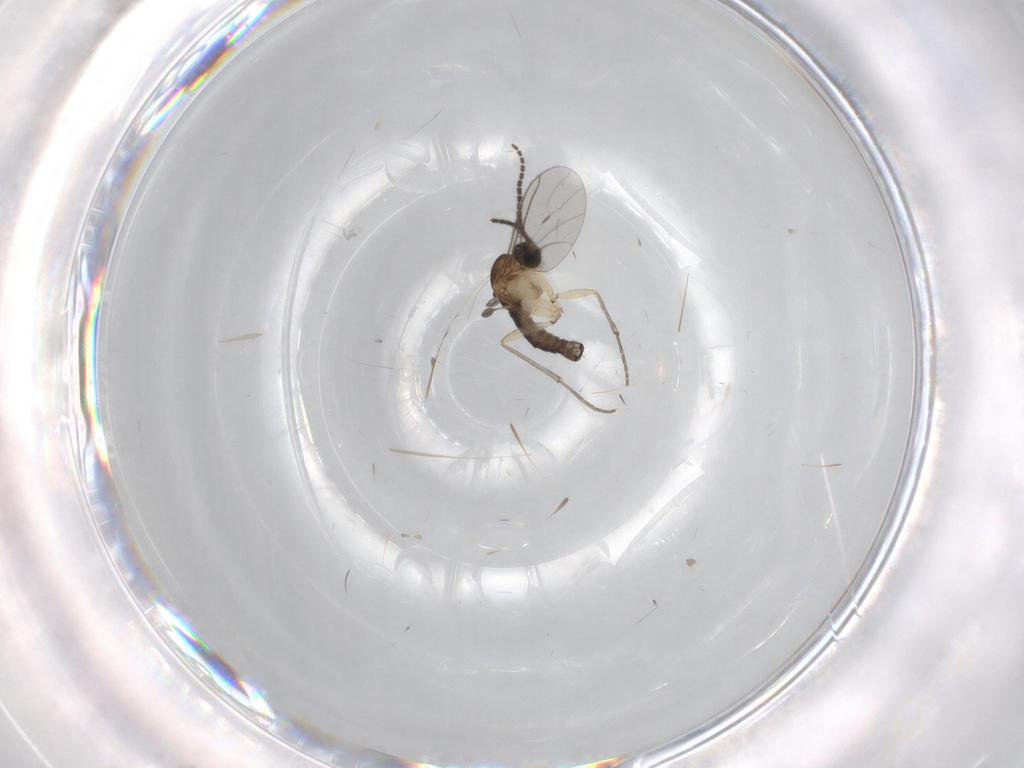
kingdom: Animalia
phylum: Arthropoda
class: Insecta
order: Diptera
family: Sciaridae
